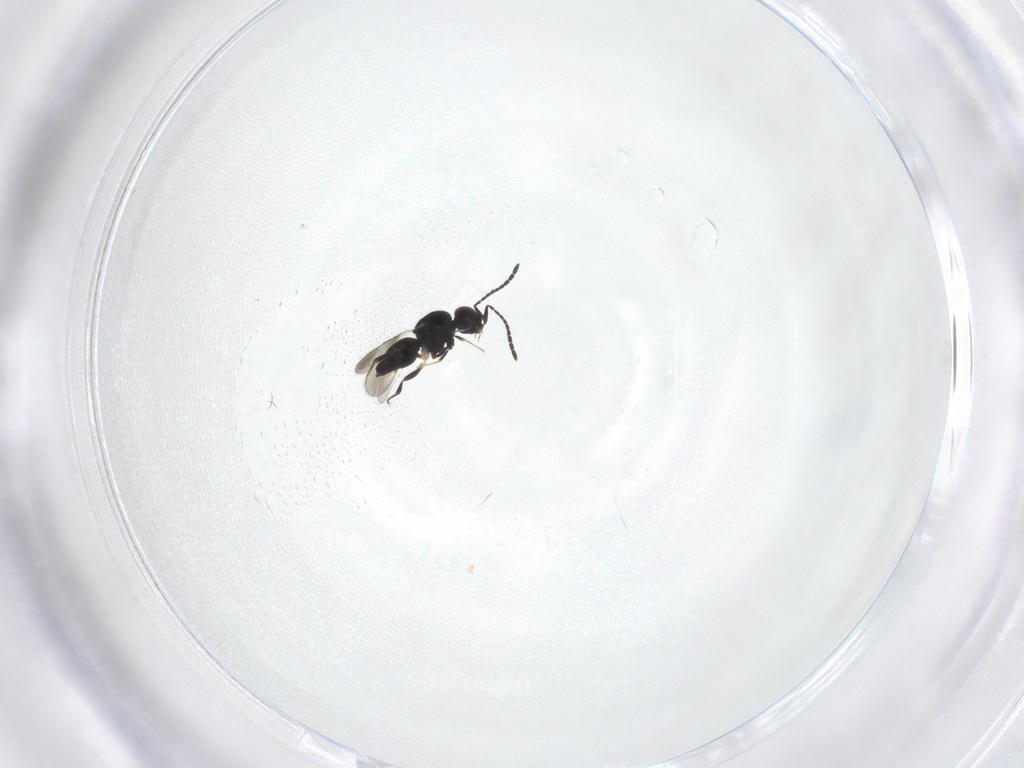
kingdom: Animalia
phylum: Arthropoda
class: Insecta
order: Hymenoptera
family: Ceraphronidae
